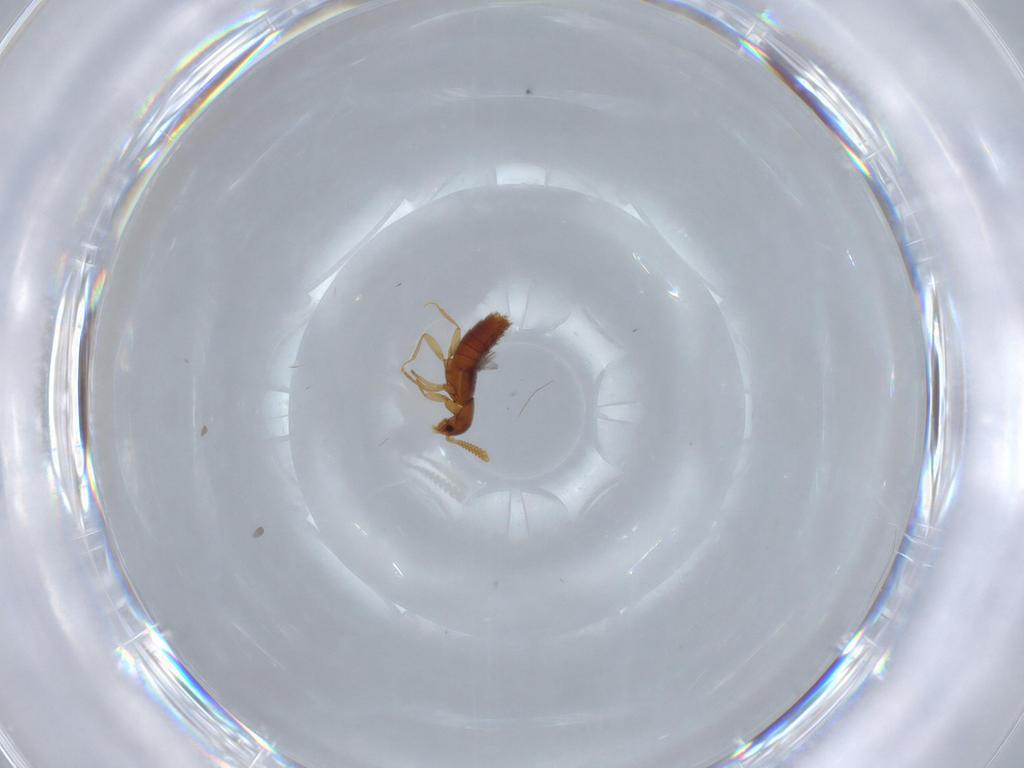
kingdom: Animalia
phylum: Arthropoda
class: Insecta
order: Coleoptera
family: Staphylinidae
